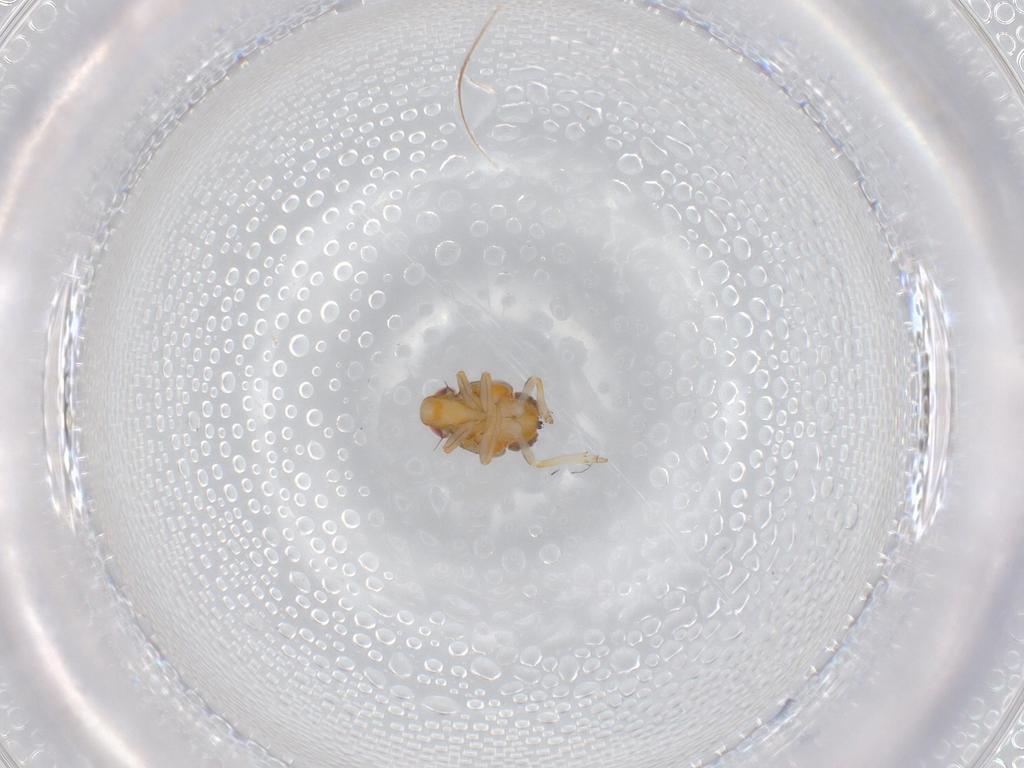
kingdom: Animalia
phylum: Arthropoda
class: Insecta
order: Hemiptera
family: Issidae
